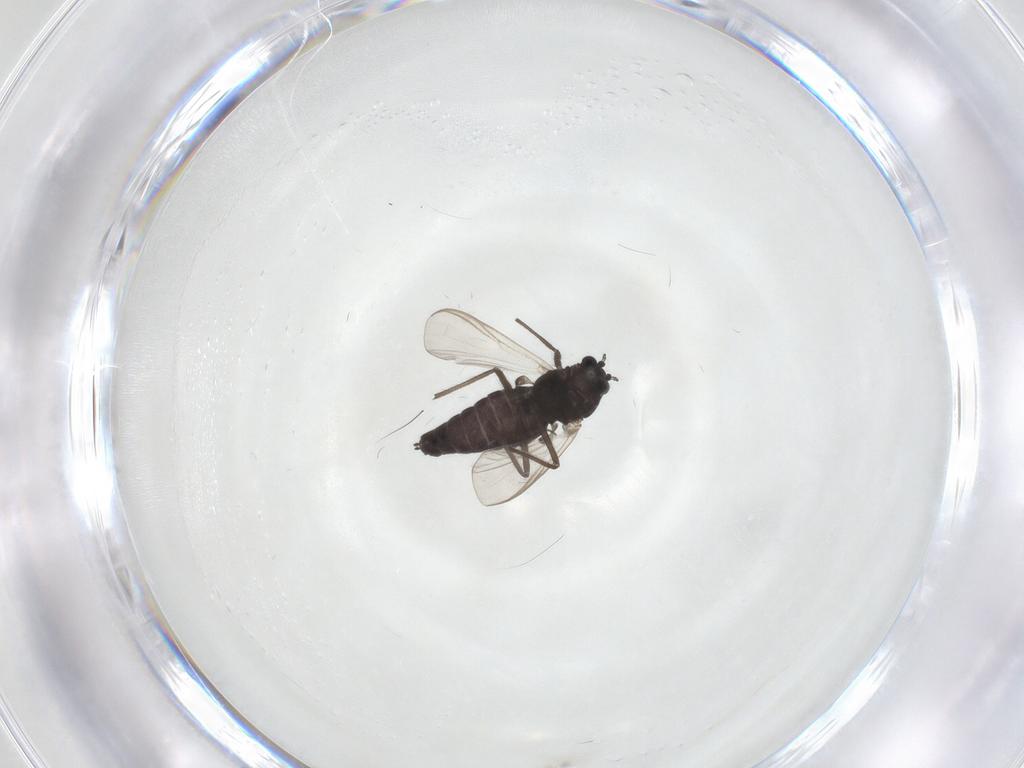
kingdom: Animalia
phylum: Arthropoda
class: Insecta
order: Diptera
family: Chironomidae
